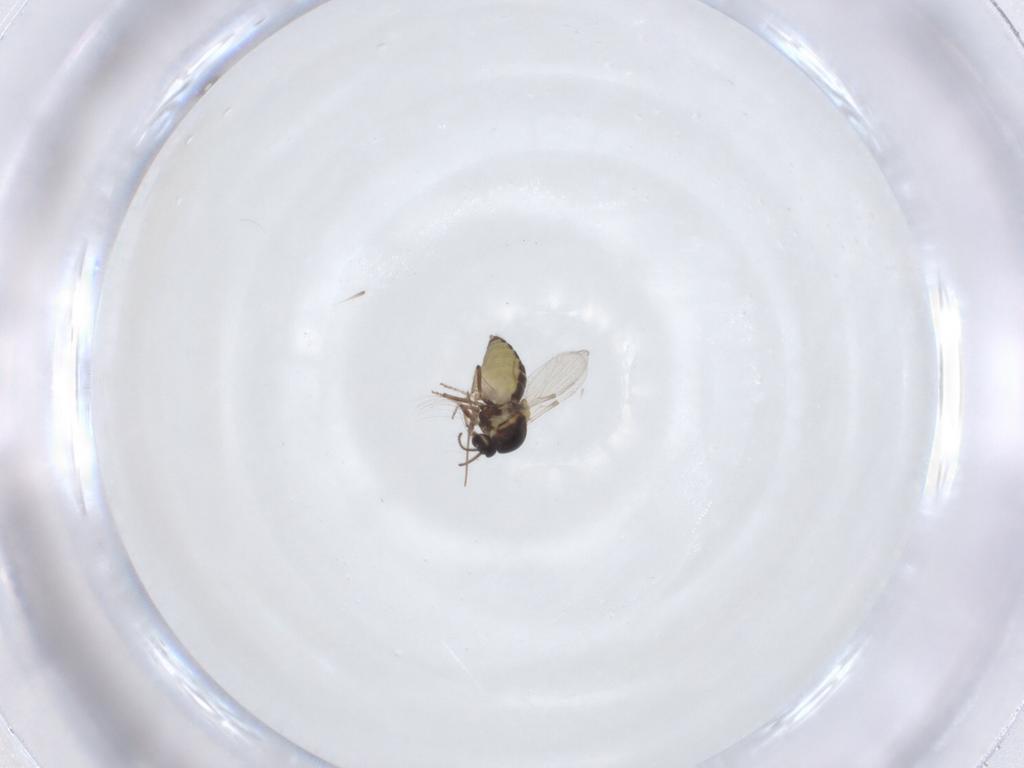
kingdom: Animalia
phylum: Arthropoda
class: Insecta
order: Diptera
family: Ceratopogonidae
